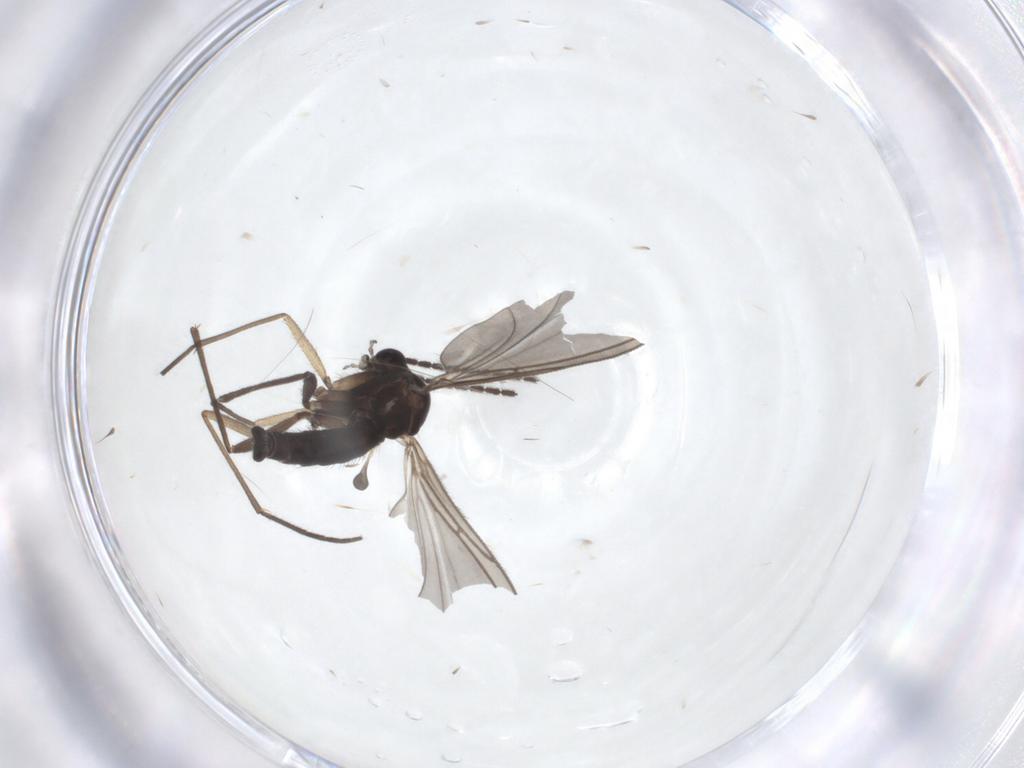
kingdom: Animalia
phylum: Arthropoda
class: Insecta
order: Diptera
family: Sciaridae
